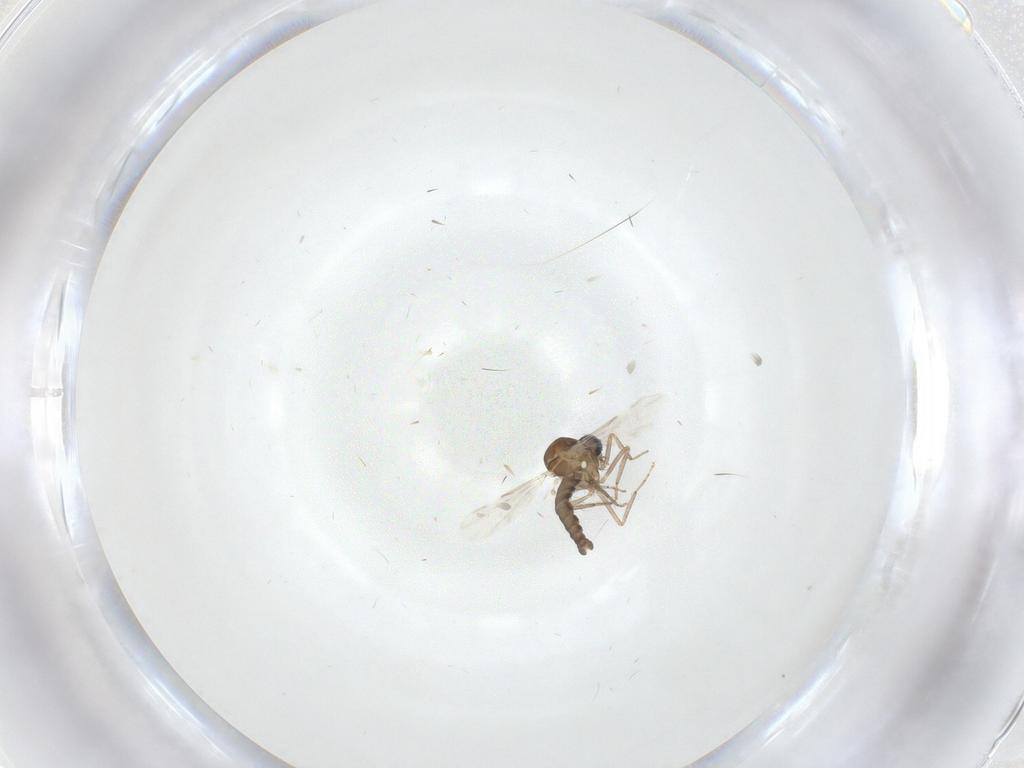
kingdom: Animalia
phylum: Arthropoda
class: Insecta
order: Diptera
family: Ceratopogonidae
